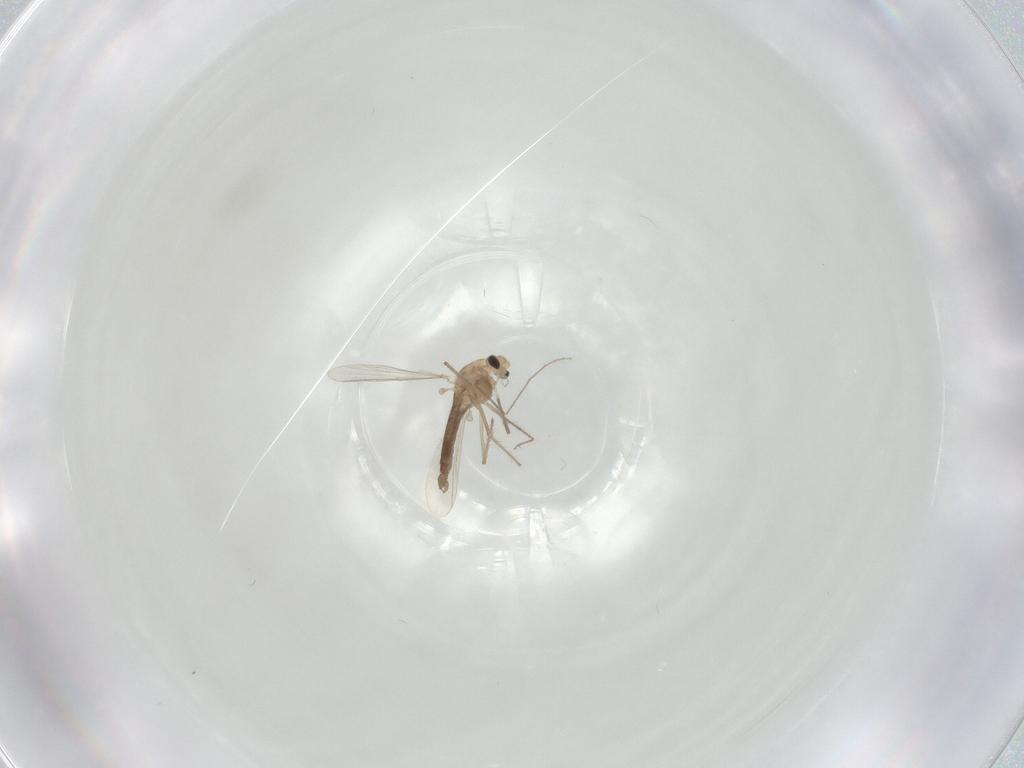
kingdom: Animalia
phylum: Arthropoda
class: Insecta
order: Diptera
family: Chironomidae
